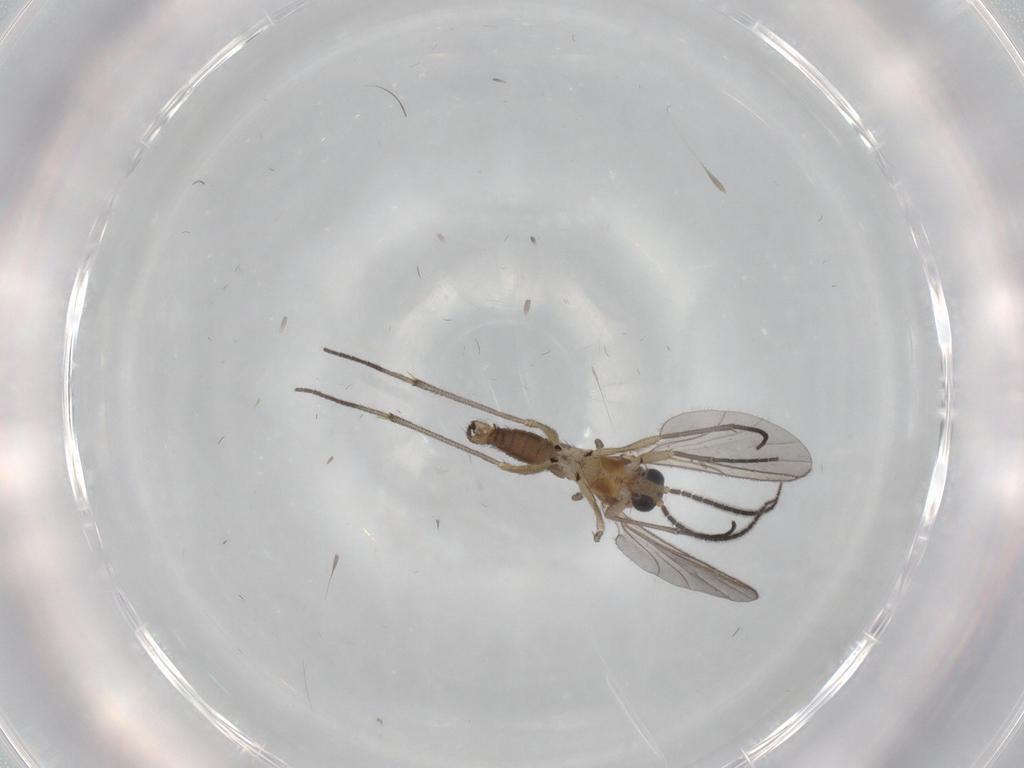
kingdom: Animalia
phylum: Arthropoda
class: Insecta
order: Diptera
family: Sciaridae
